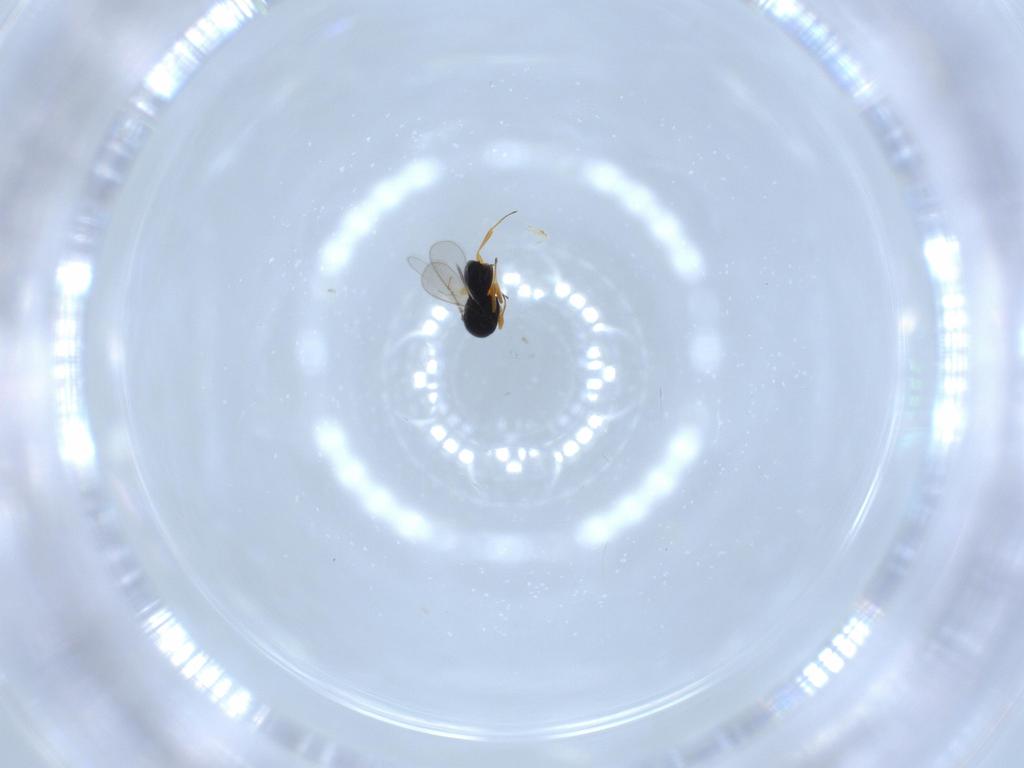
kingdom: Animalia
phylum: Arthropoda
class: Insecta
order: Hymenoptera
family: Scelionidae
